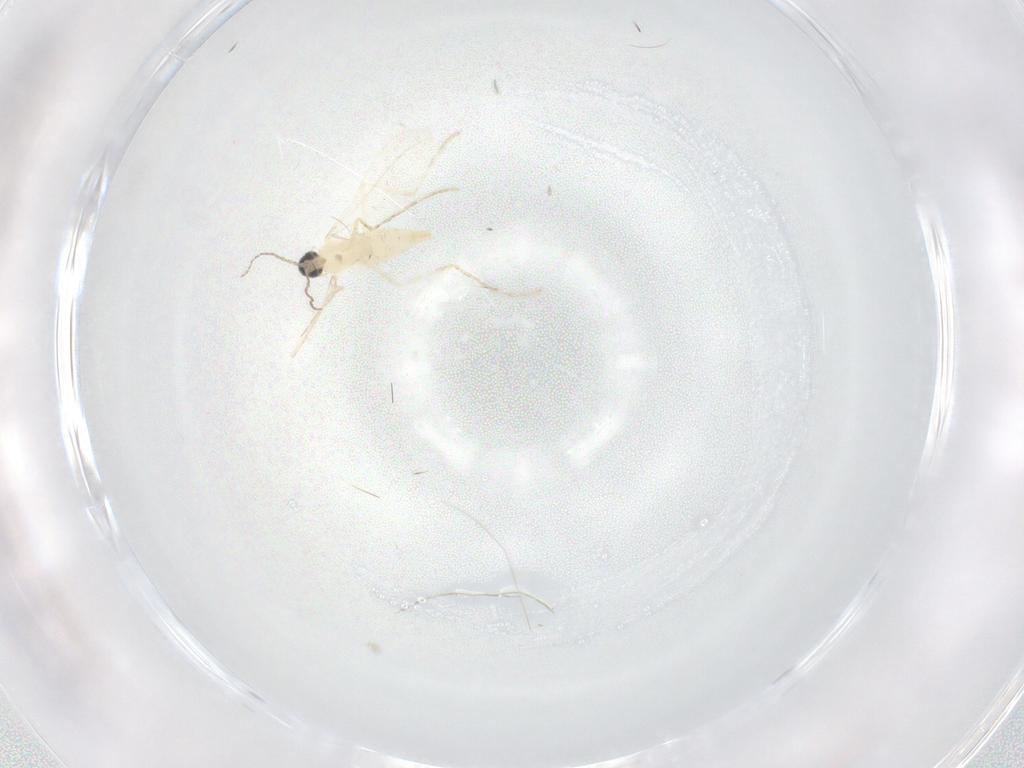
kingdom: Animalia
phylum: Arthropoda
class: Insecta
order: Diptera
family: Cecidomyiidae
